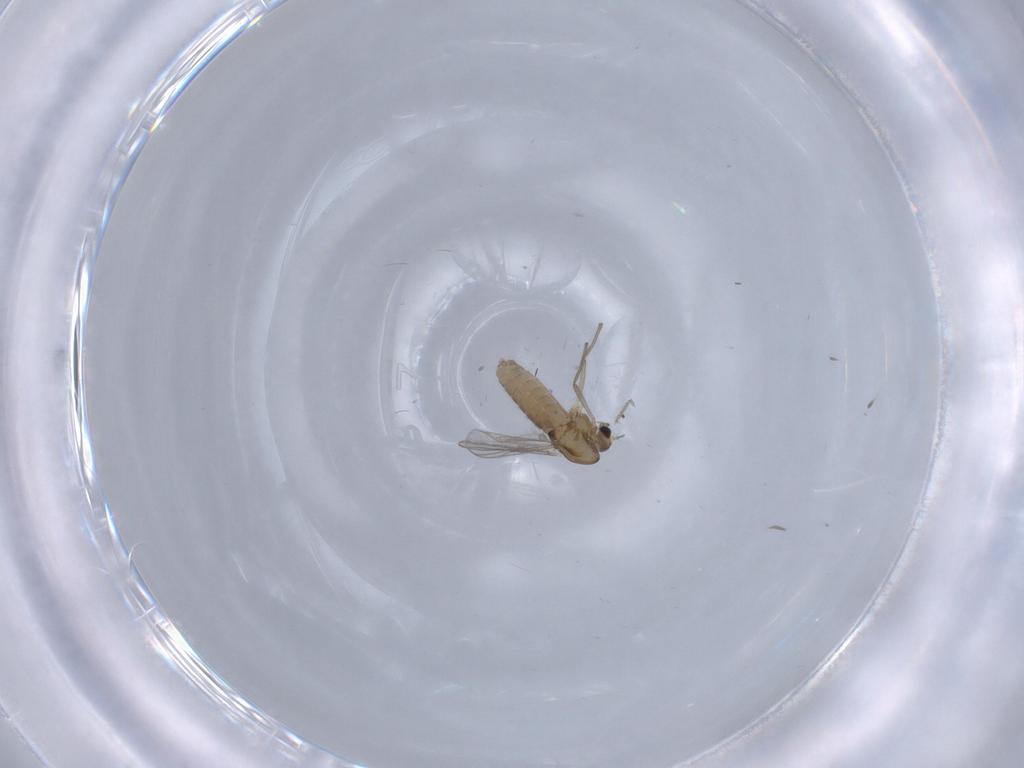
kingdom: Animalia
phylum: Arthropoda
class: Insecta
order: Diptera
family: Chironomidae
